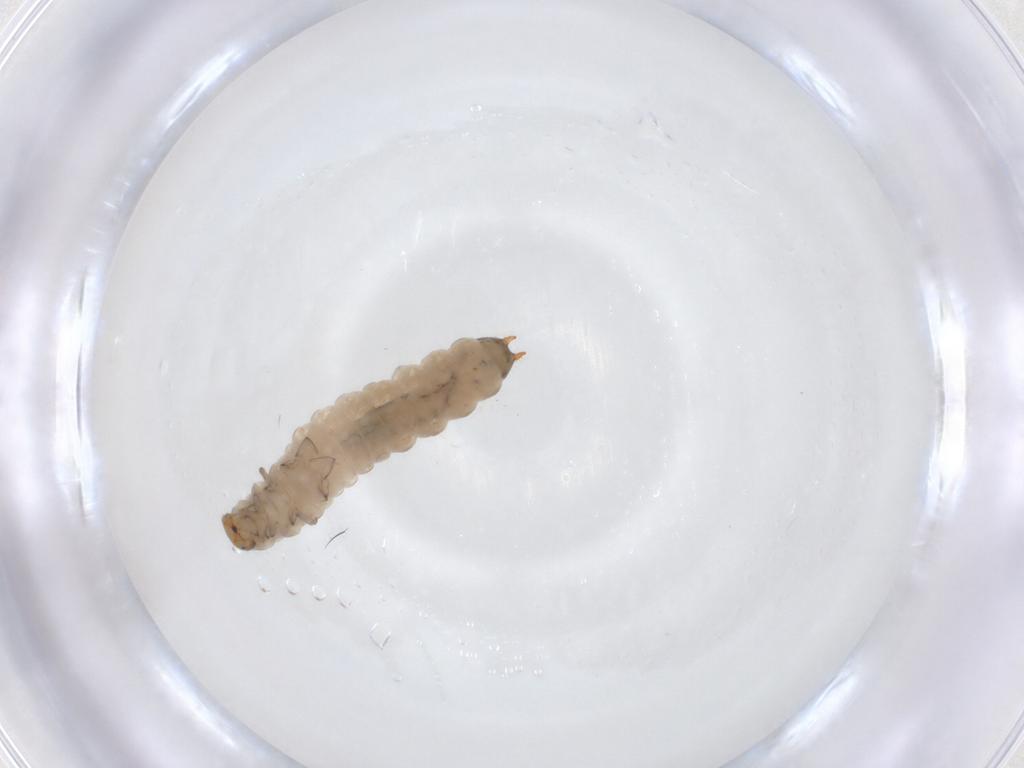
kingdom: Animalia
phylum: Arthropoda
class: Insecta
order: Coleoptera
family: Melyridae
